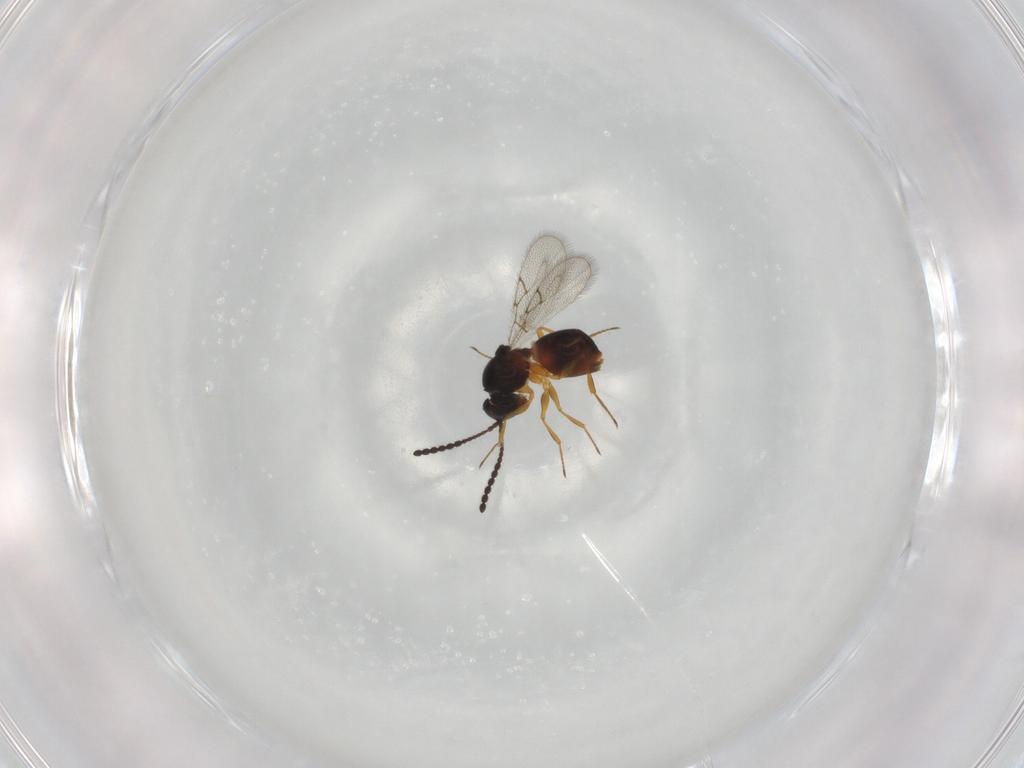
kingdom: Animalia
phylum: Arthropoda
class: Insecta
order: Hymenoptera
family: Figitidae
